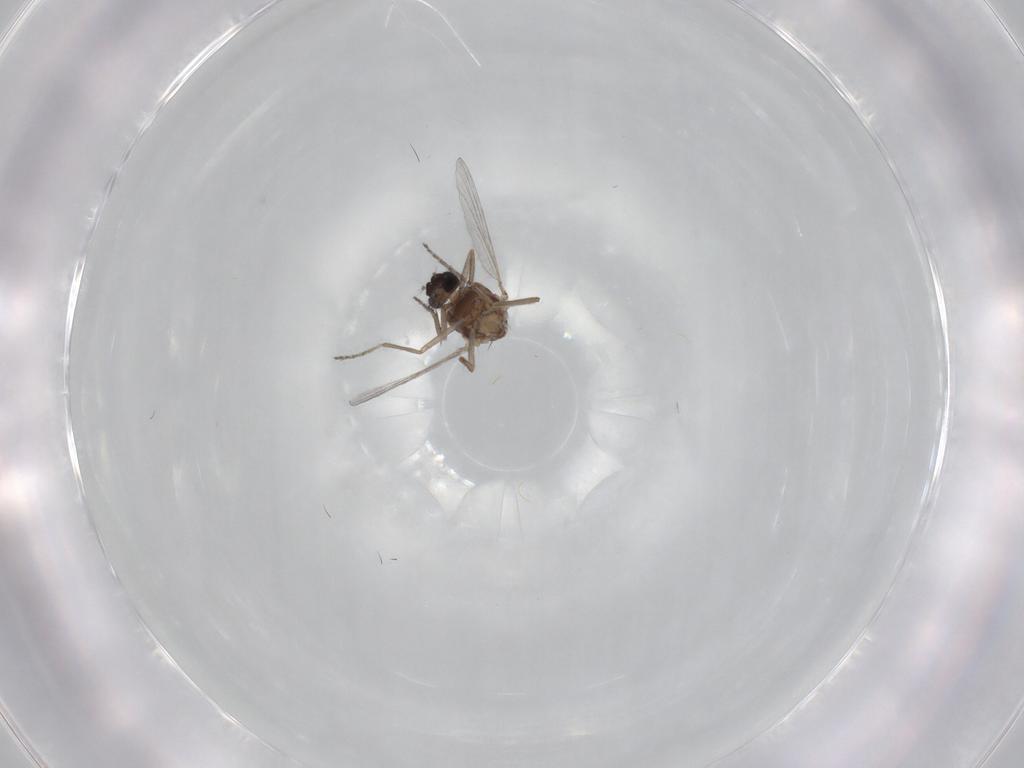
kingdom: Animalia
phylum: Arthropoda
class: Insecta
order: Diptera
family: Ceratopogonidae
